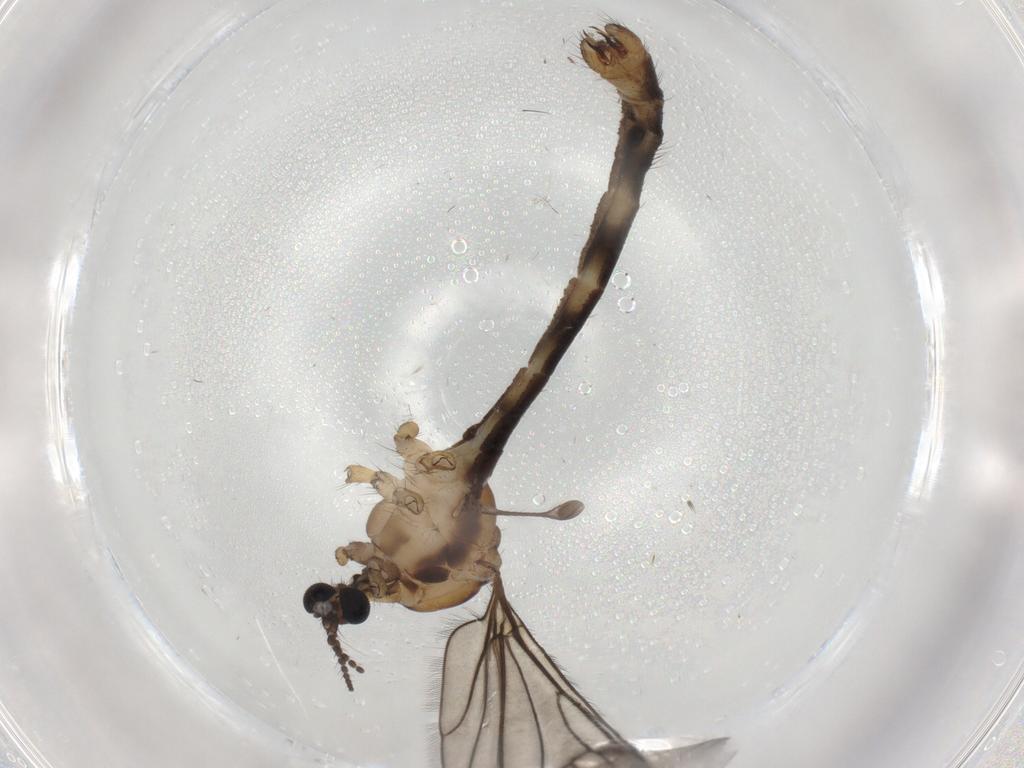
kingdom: Animalia
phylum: Arthropoda
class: Insecta
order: Diptera
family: Limoniidae
